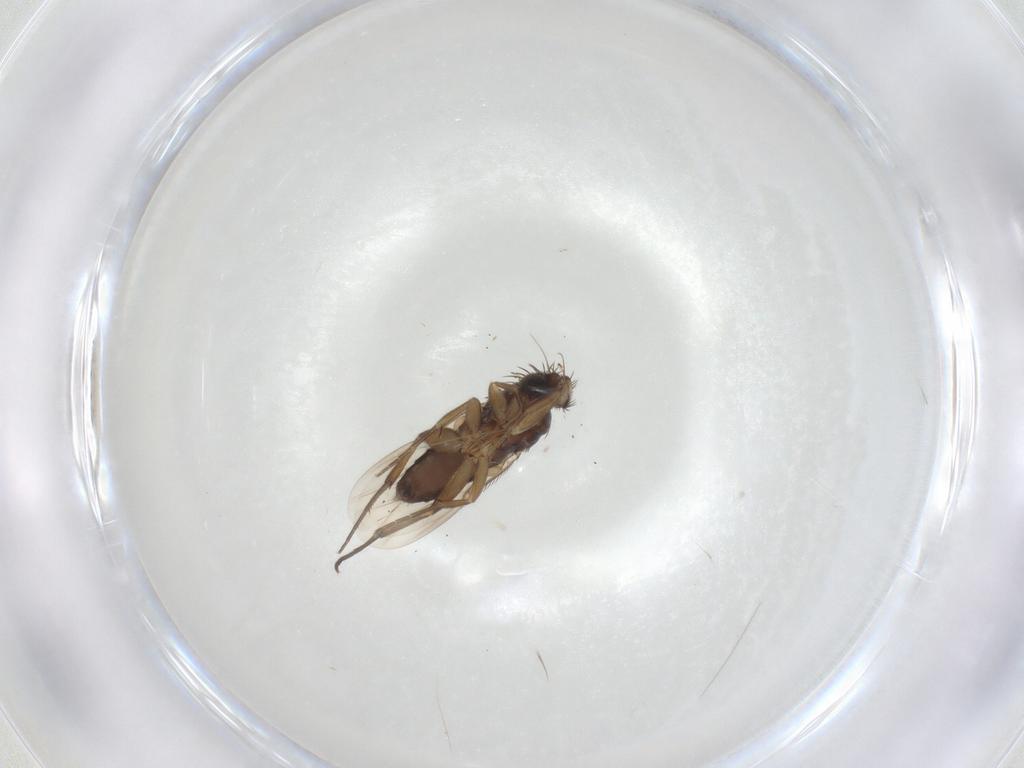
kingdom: Animalia
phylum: Arthropoda
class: Insecta
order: Diptera
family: Phoridae
